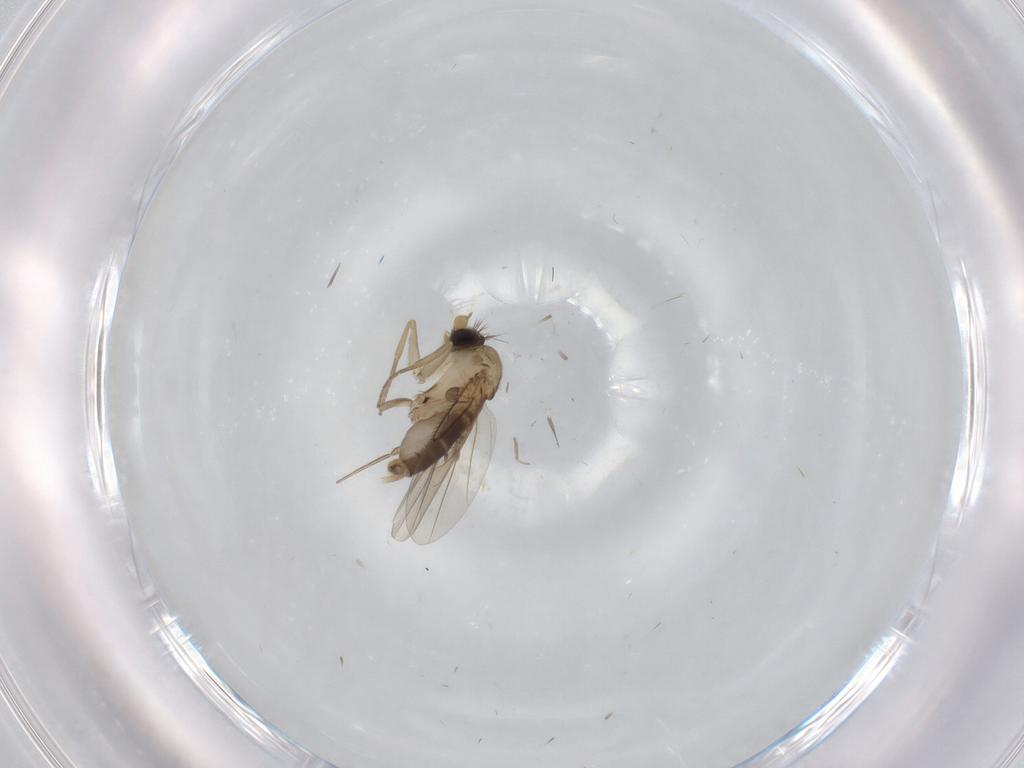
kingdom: Animalia
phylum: Arthropoda
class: Insecta
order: Diptera
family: Phoridae
